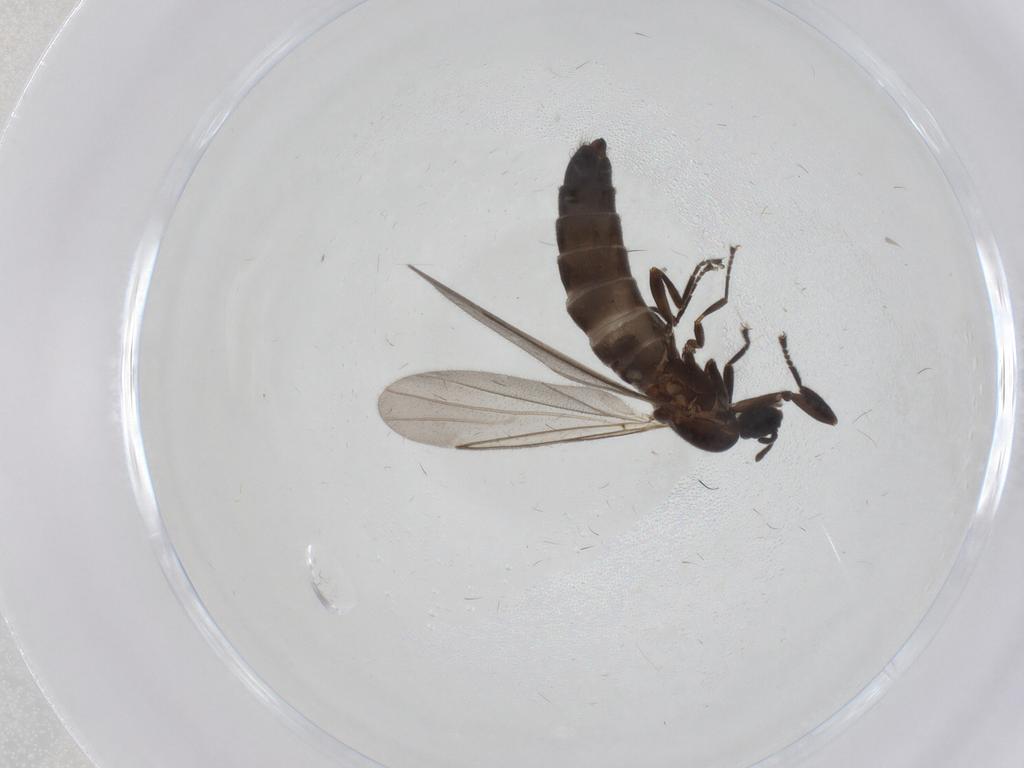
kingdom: Animalia
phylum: Arthropoda
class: Insecta
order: Diptera
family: Scatopsidae
